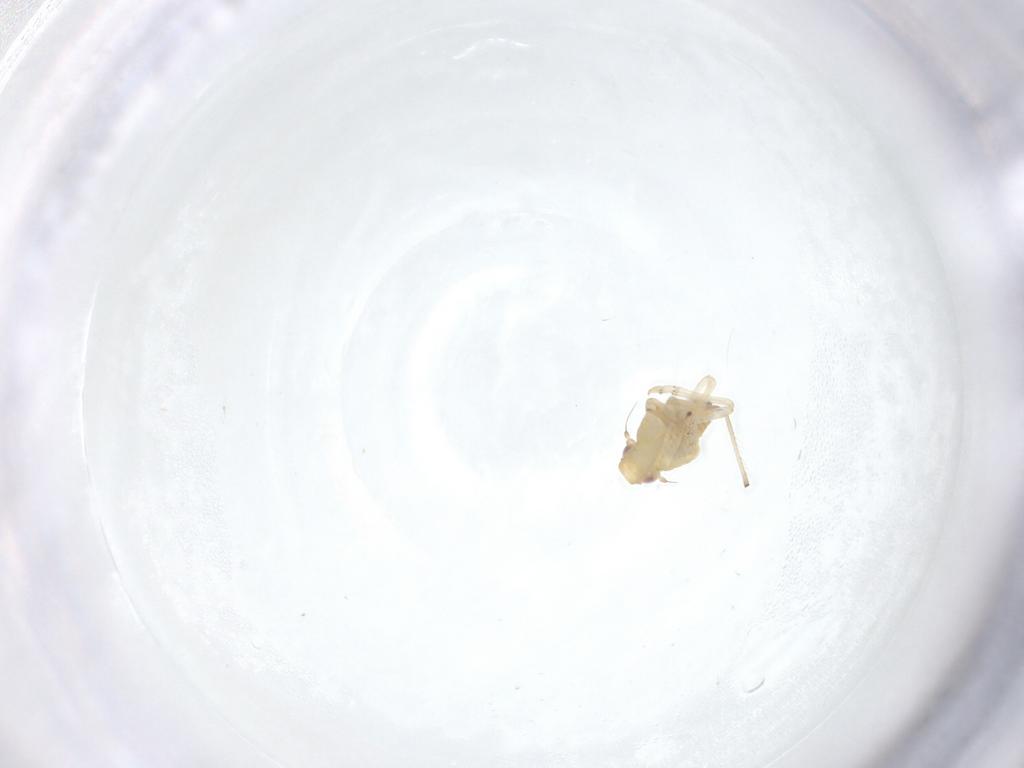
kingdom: Animalia
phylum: Arthropoda
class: Insecta
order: Hemiptera
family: Tropiduchidae
